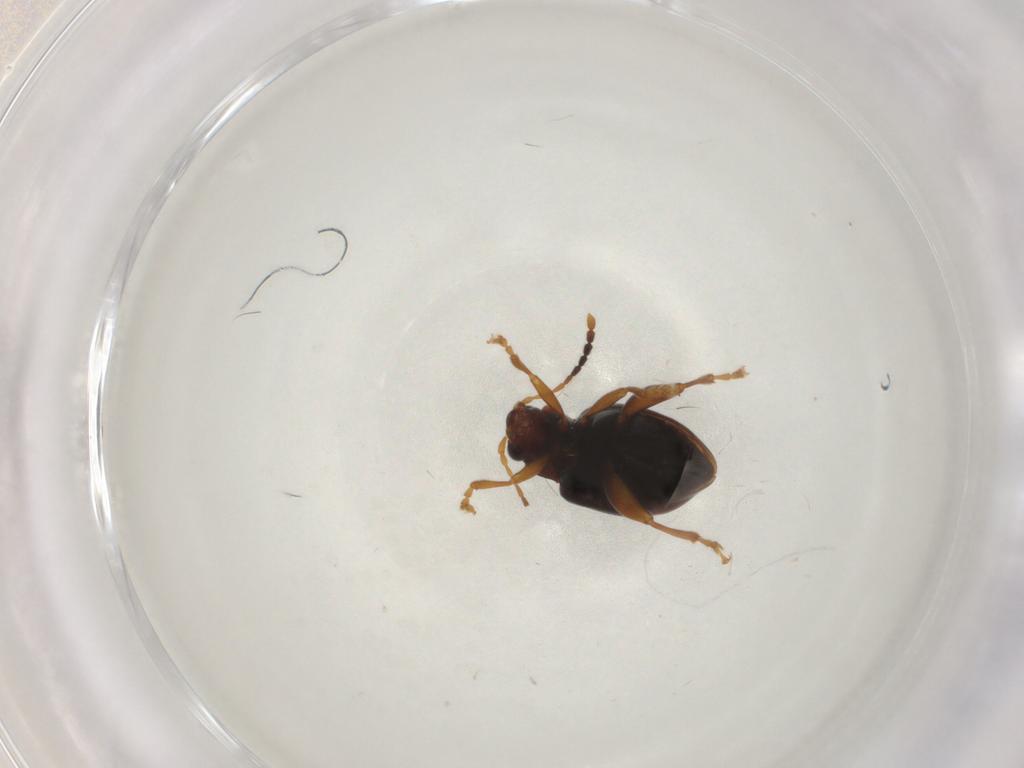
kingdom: Animalia
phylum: Arthropoda
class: Insecta
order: Coleoptera
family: Chrysomelidae
